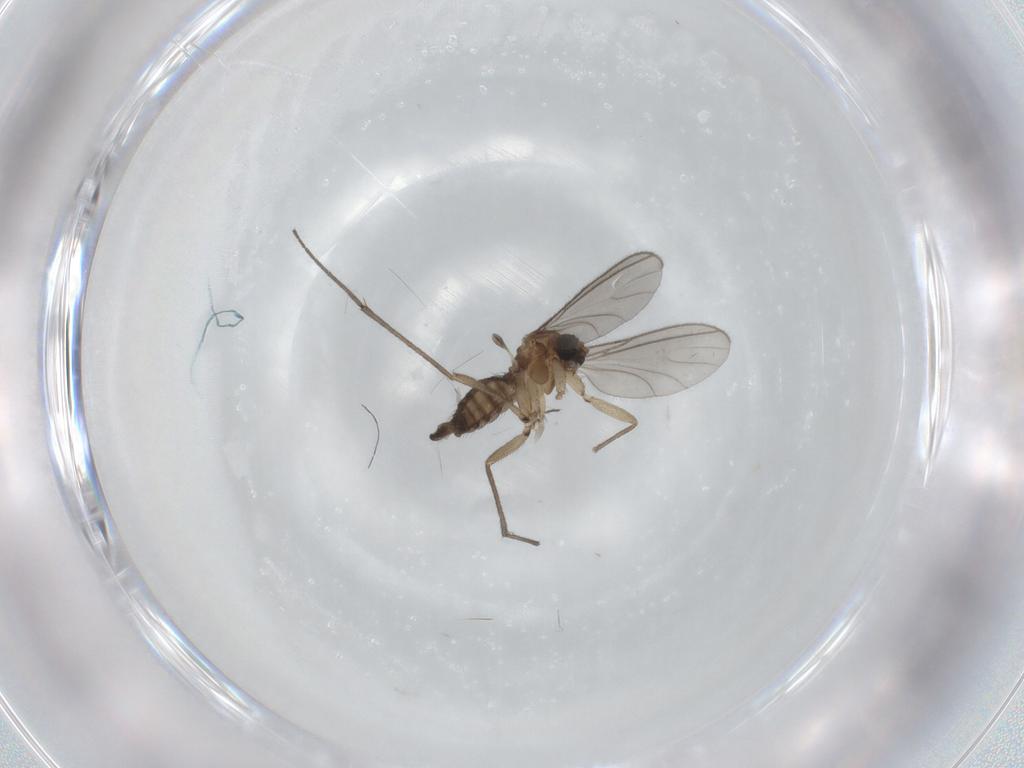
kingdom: Animalia
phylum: Arthropoda
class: Insecta
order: Diptera
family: Sciaridae
